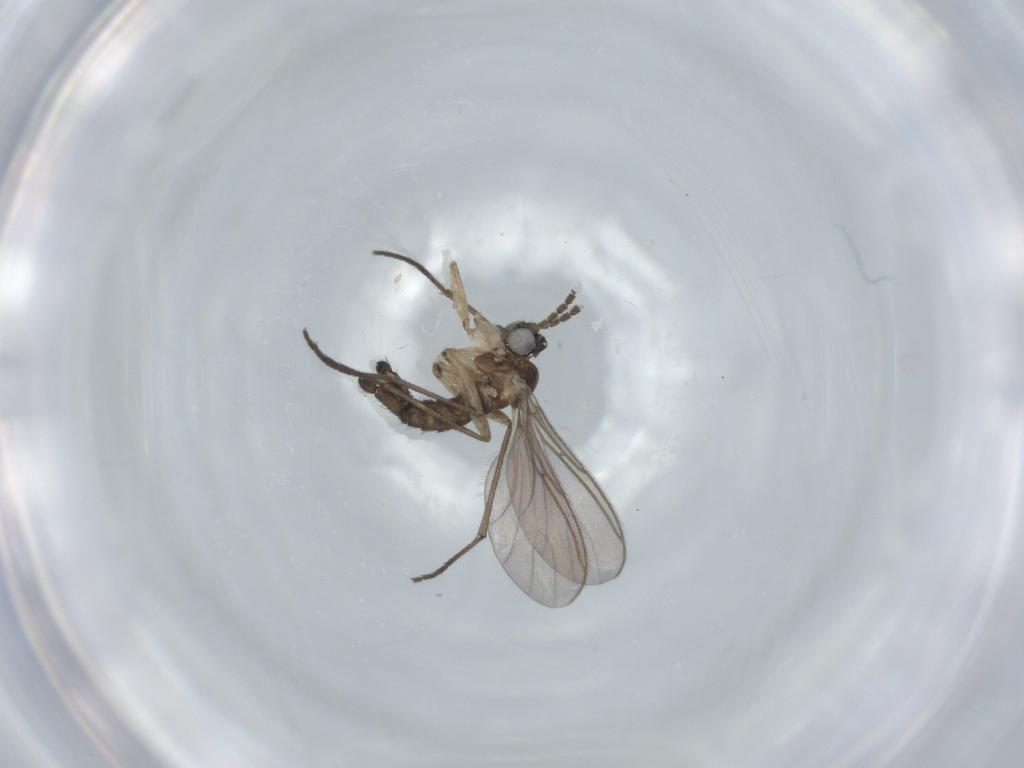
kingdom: Animalia
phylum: Arthropoda
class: Insecta
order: Diptera
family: Sciaridae
